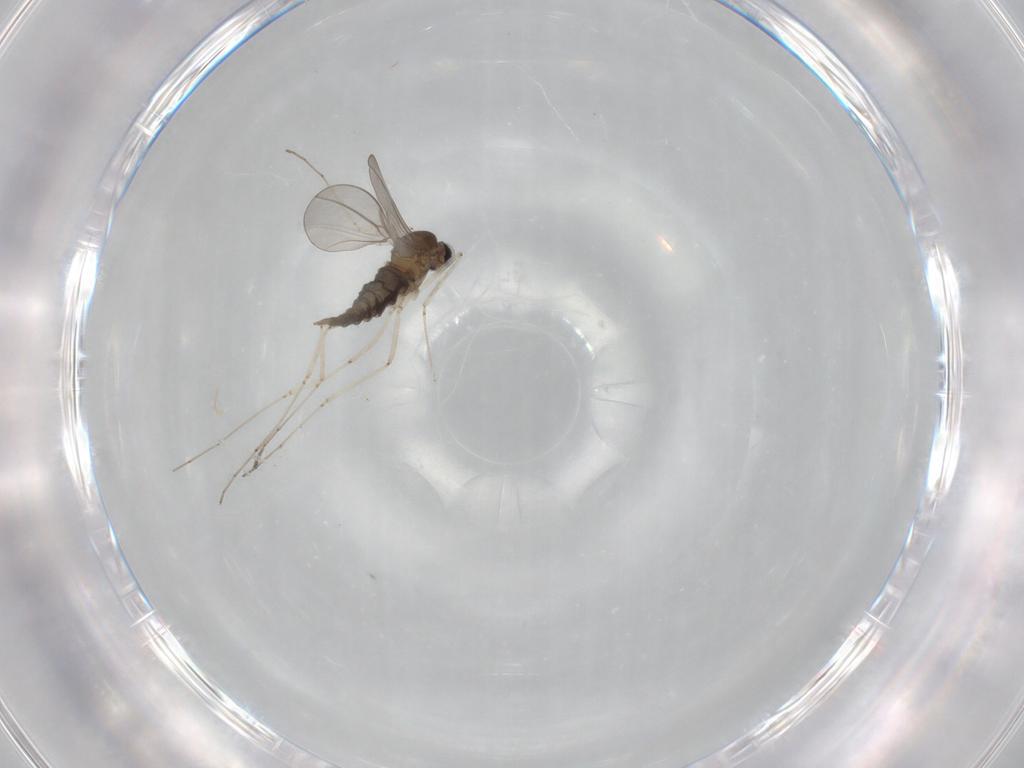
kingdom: Animalia
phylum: Arthropoda
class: Insecta
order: Diptera
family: Cecidomyiidae
